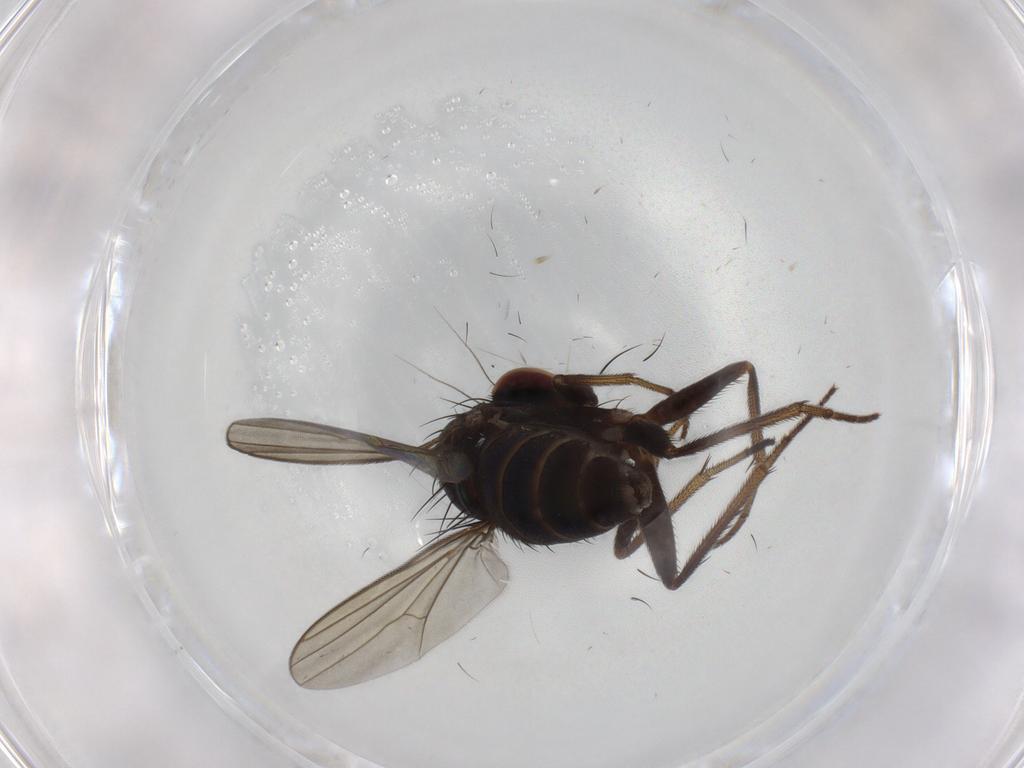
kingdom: Animalia
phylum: Arthropoda
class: Insecta
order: Diptera
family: Dolichopodidae
